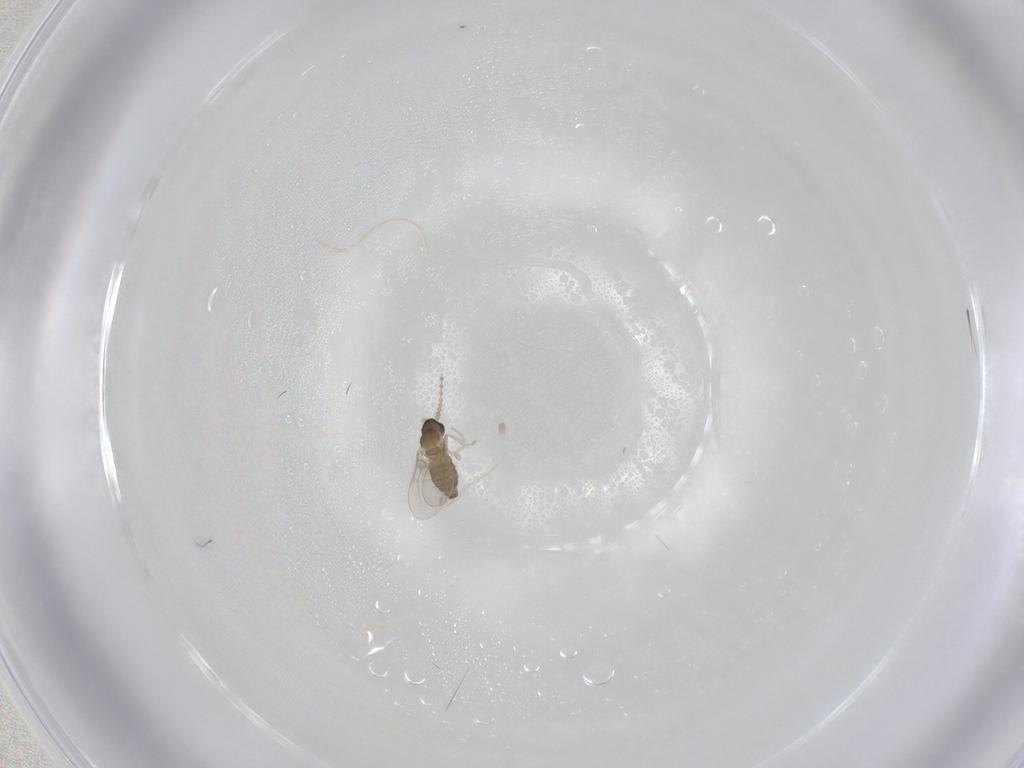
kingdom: Animalia
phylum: Arthropoda
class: Insecta
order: Diptera
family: Cecidomyiidae
